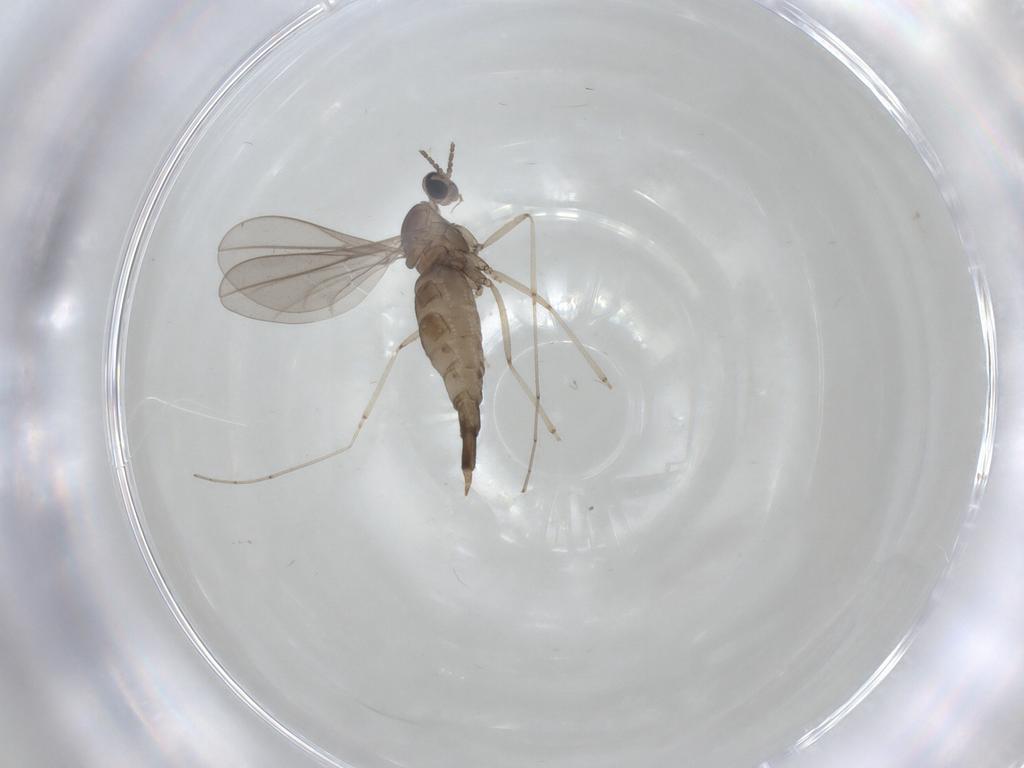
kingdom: Animalia
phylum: Arthropoda
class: Insecta
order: Diptera
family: Cecidomyiidae
